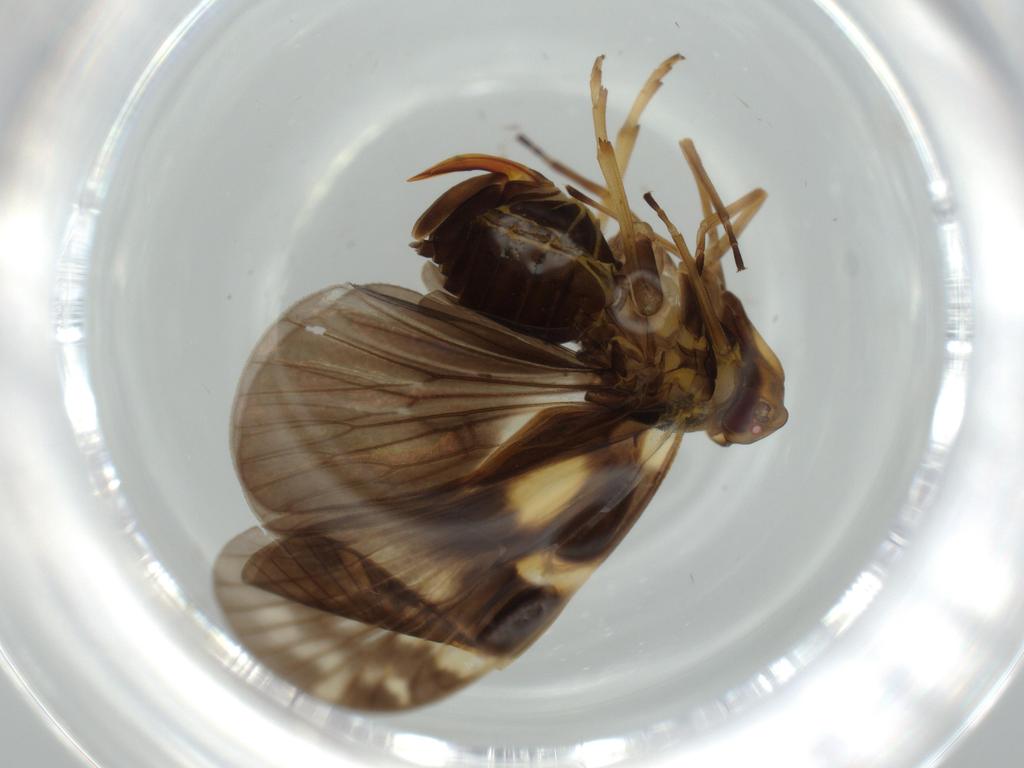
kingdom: Animalia
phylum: Arthropoda
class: Insecta
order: Hemiptera
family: Cixiidae
